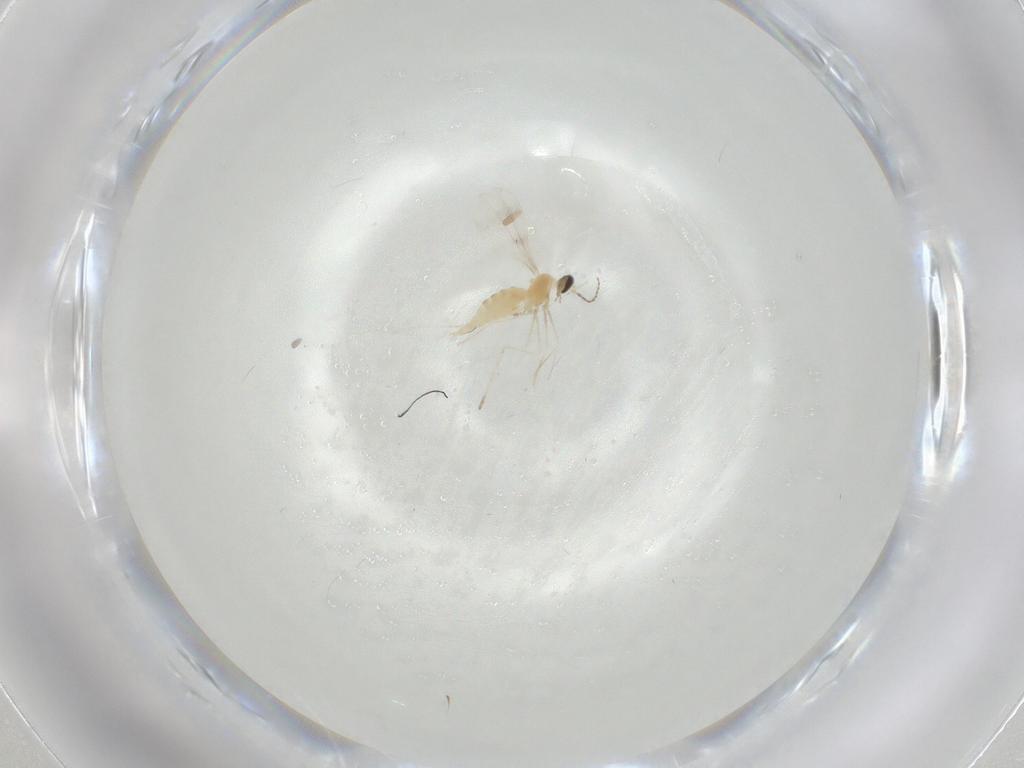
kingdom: Animalia
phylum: Arthropoda
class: Insecta
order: Diptera
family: Cecidomyiidae
